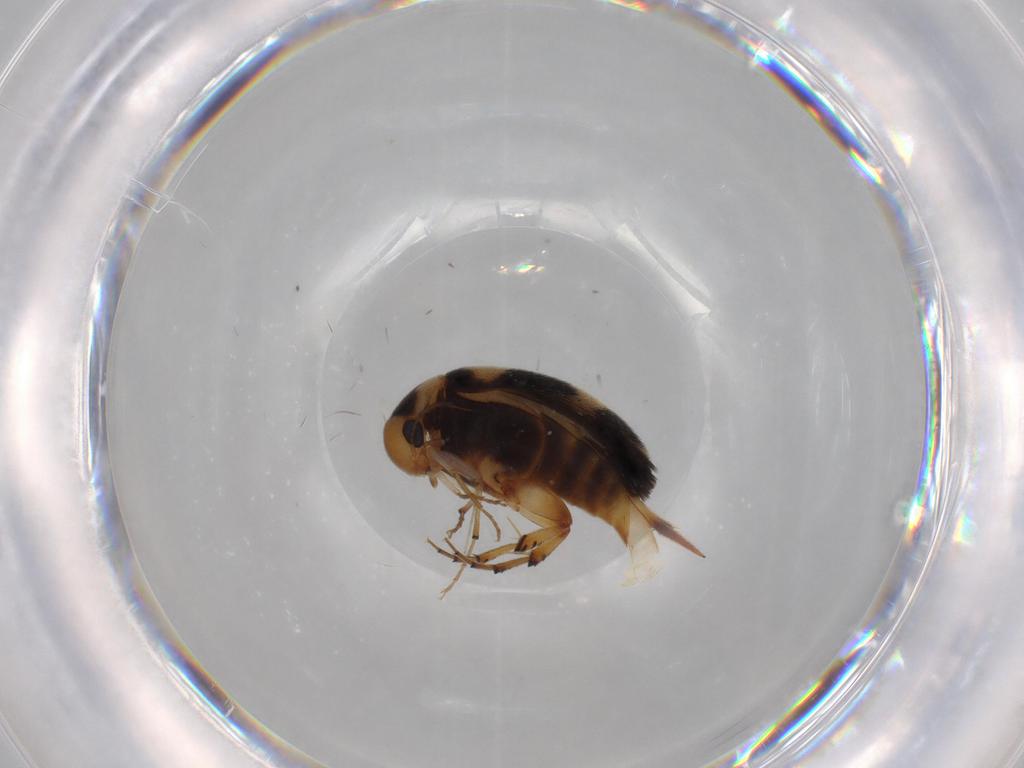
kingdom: Animalia
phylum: Arthropoda
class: Insecta
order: Coleoptera
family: Mordellidae
